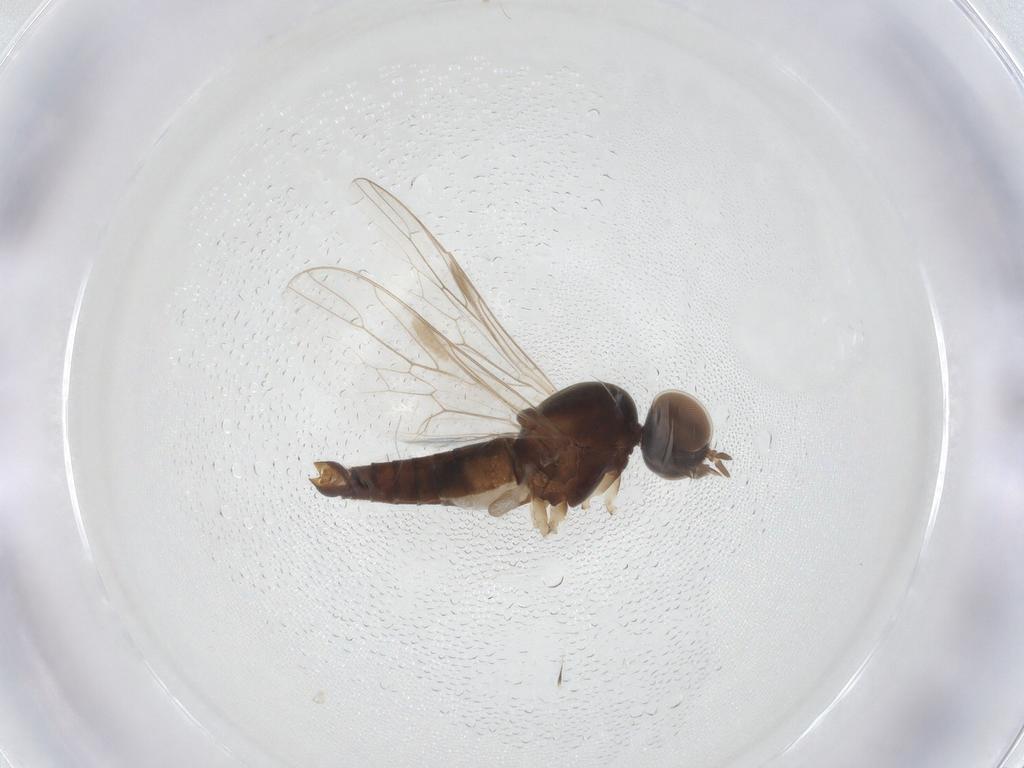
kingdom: Animalia
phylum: Arthropoda
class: Insecta
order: Diptera
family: Scenopinidae
